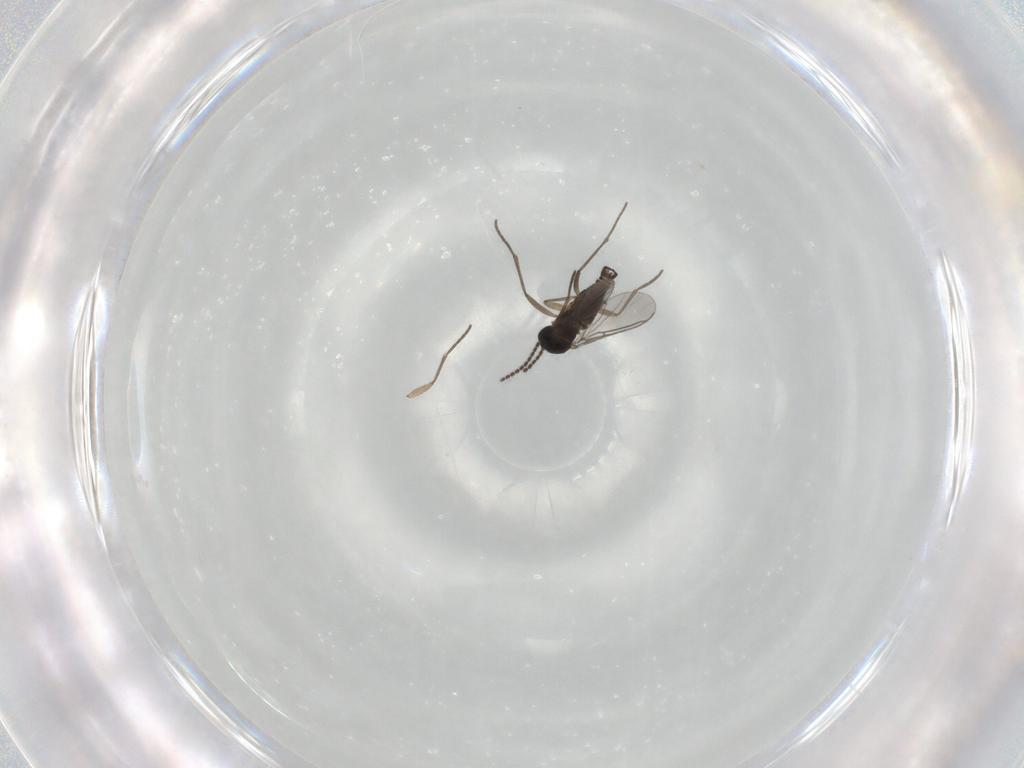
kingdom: Animalia
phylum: Arthropoda
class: Insecta
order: Diptera
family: Sciaridae
